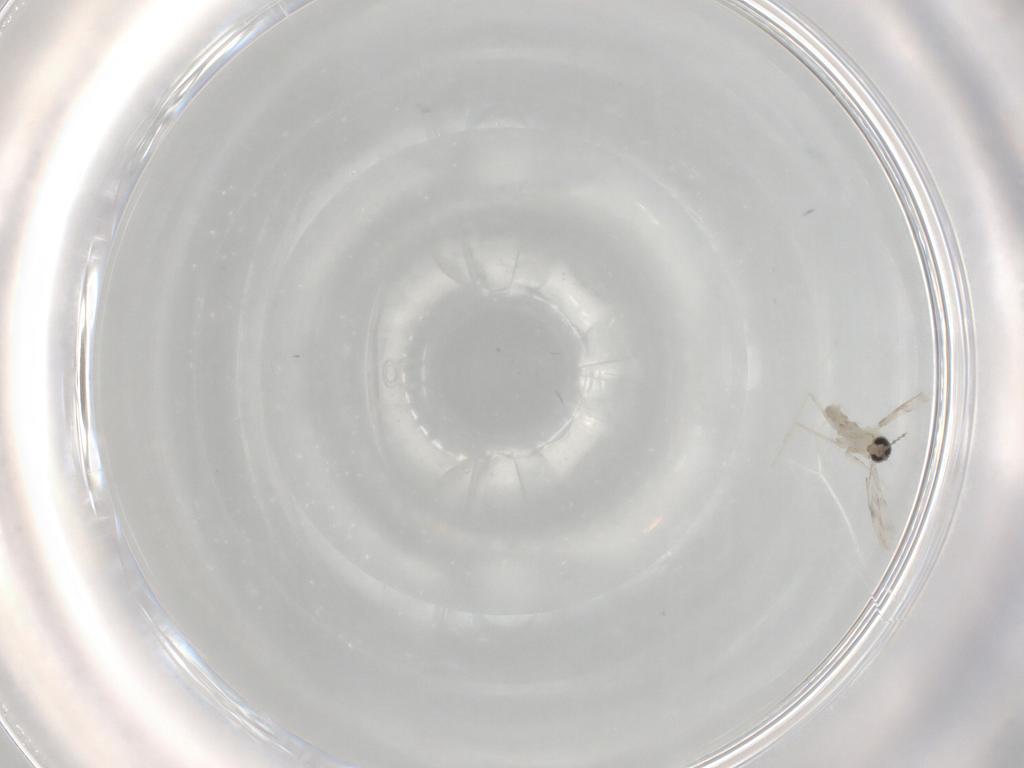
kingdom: Animalia
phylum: Arthropoda
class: Insecta
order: Diptera
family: Cecidomyiidae
